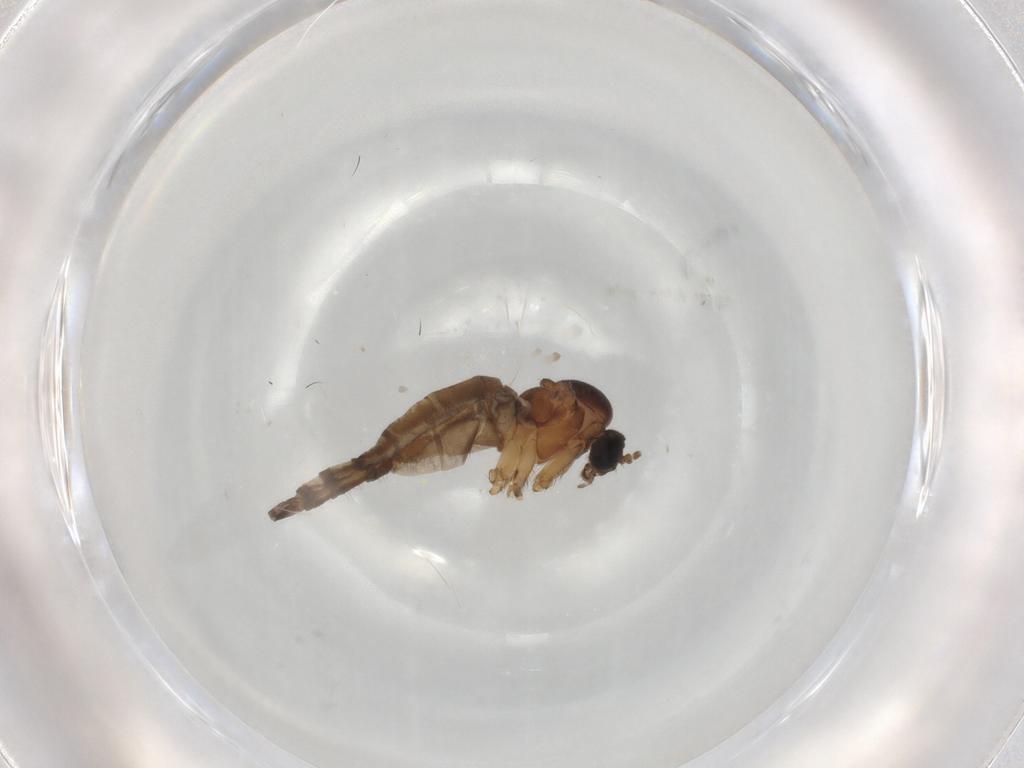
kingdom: Animalia
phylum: Arthropoda
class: Insecta
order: Diptera
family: Sciaridae
